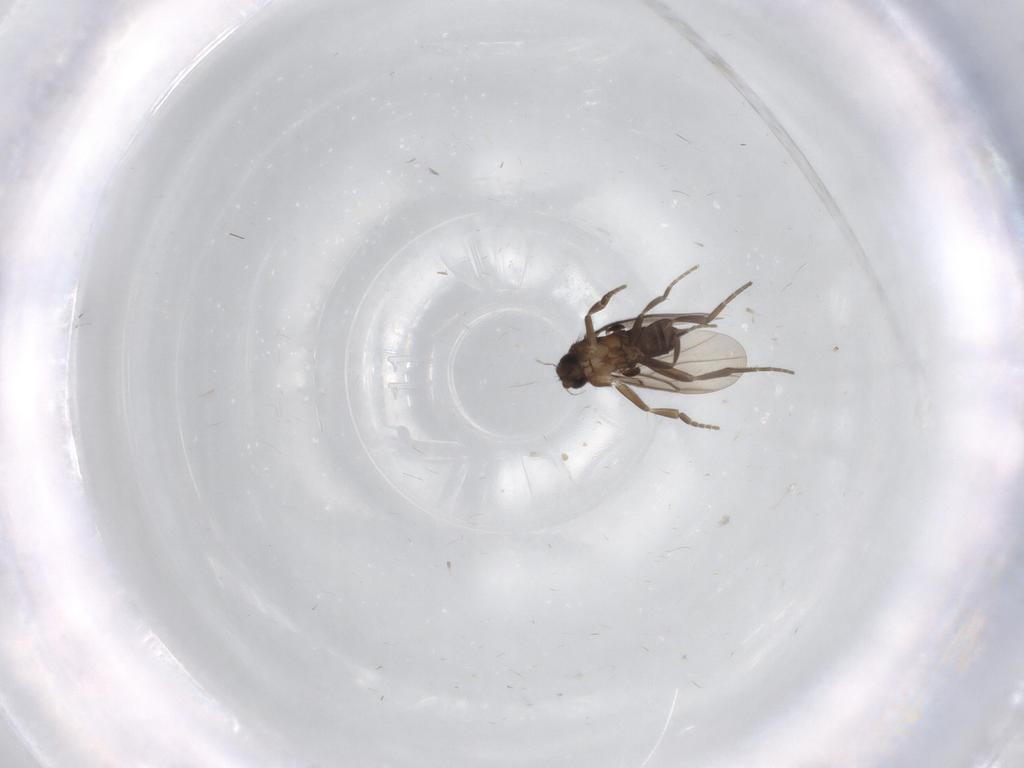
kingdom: Animalia
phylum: Arthropoda
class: Insecta
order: Diptera
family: Phoridae
